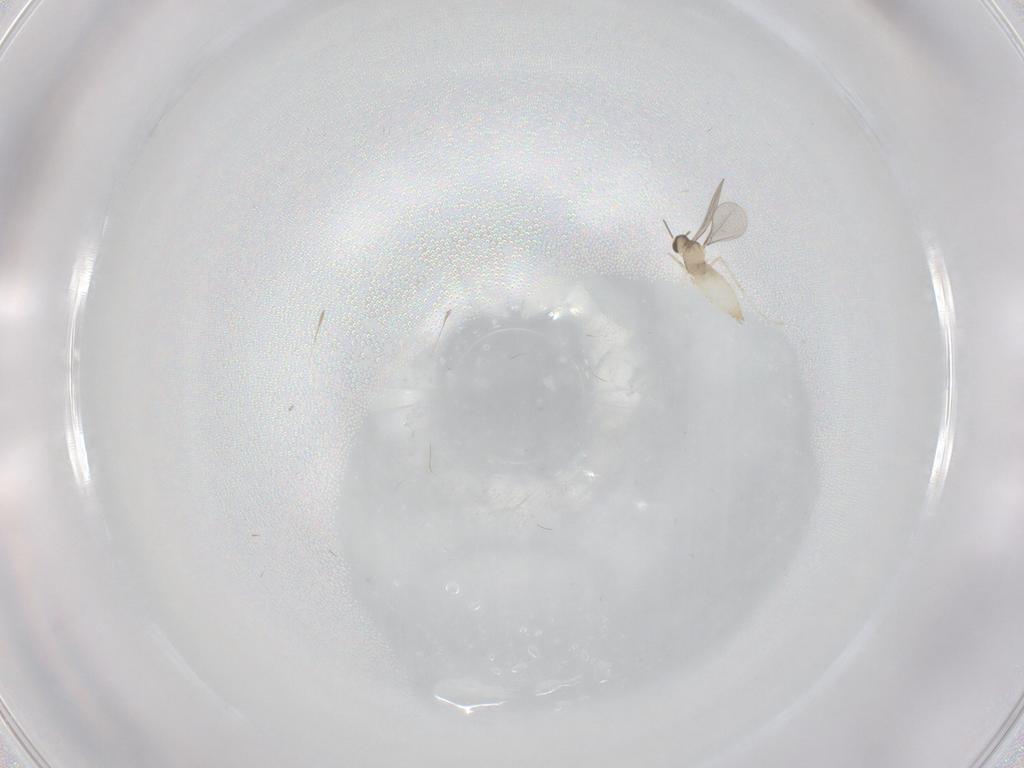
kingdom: Animalia
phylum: Arthropoda
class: Insecta
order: Diptera
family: Cecidomyiidae
